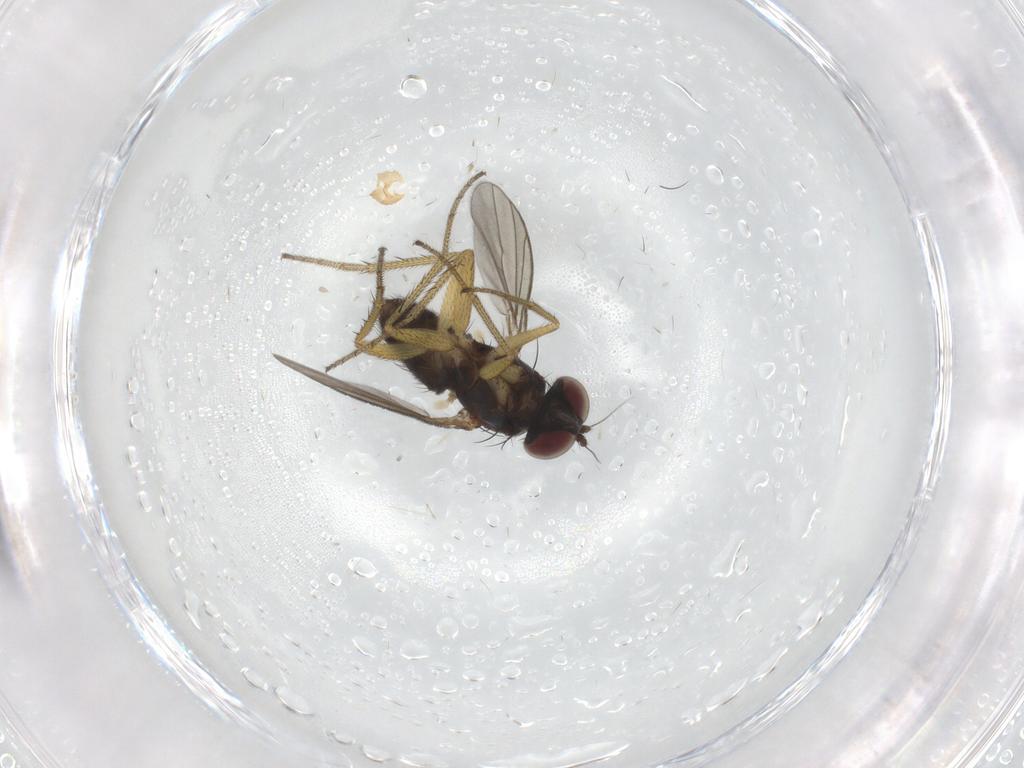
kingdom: Animalia
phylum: Arthropoda
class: Insecta
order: Diptera
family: Dolichopodidae
